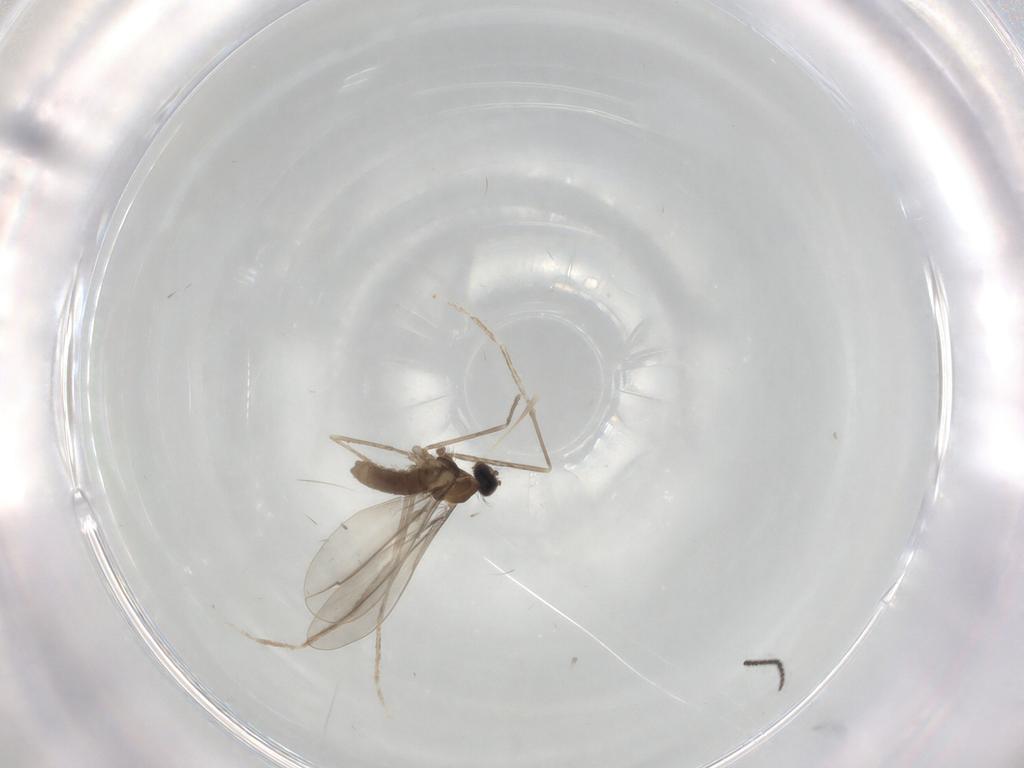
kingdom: Animalia
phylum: Arthropoda
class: Insecta
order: Diptera
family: Cecidomyiidae
